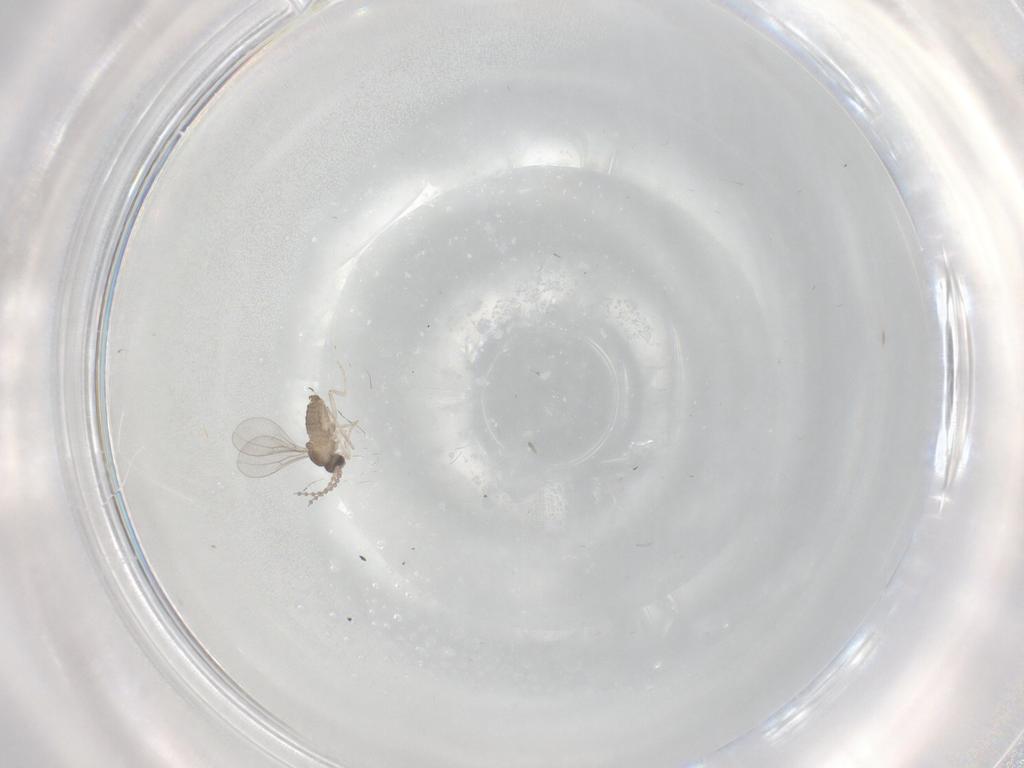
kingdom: Animalia
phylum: Arthropoda
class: Insecta
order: Diptera
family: Cecidomyiidae
